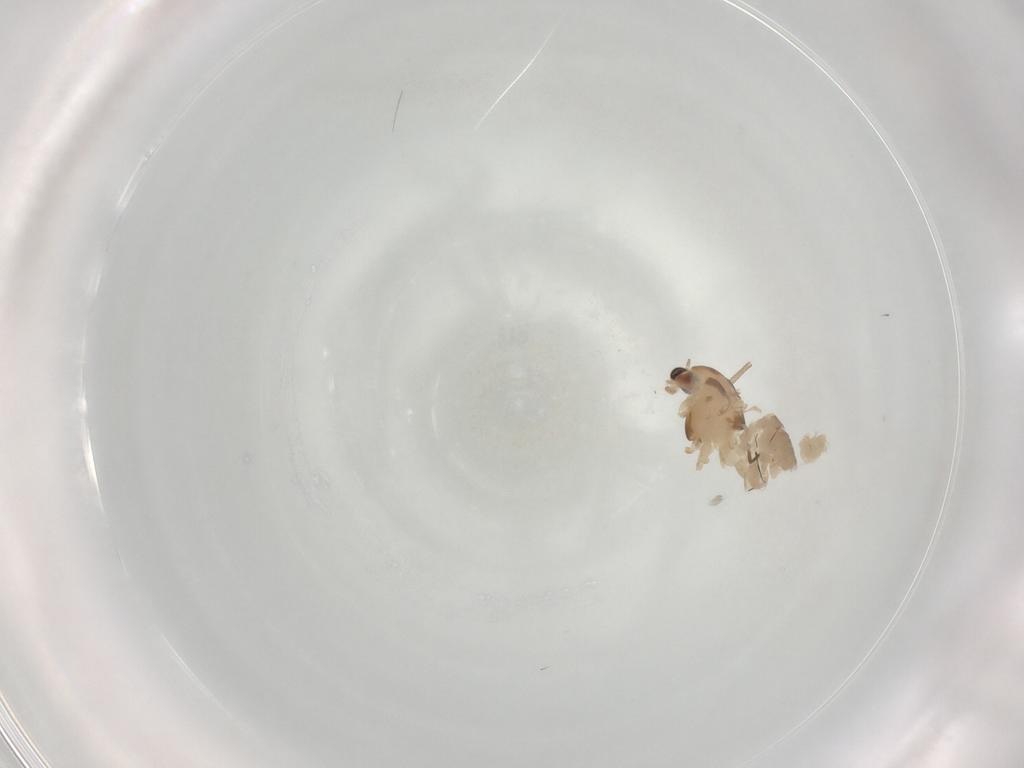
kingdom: Animalia
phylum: Arthropoda
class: Insecta
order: Diptera
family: Chironomidae
